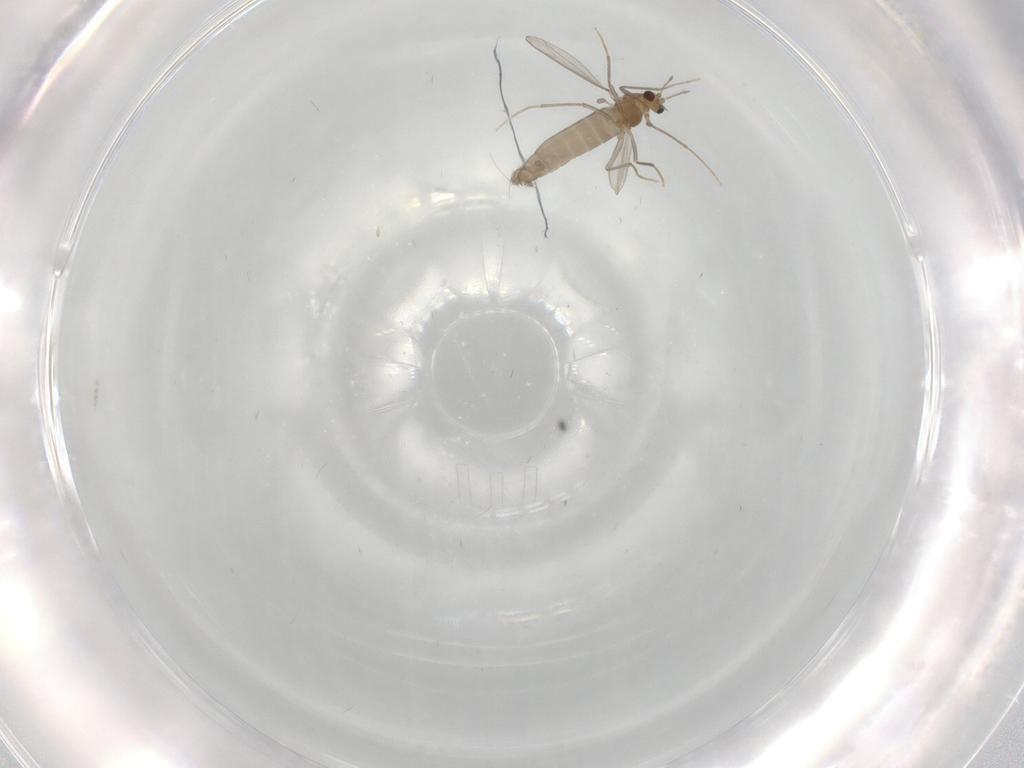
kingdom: Animalia
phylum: Arthropoda
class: Insecta
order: Diptera
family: Chironomidae
